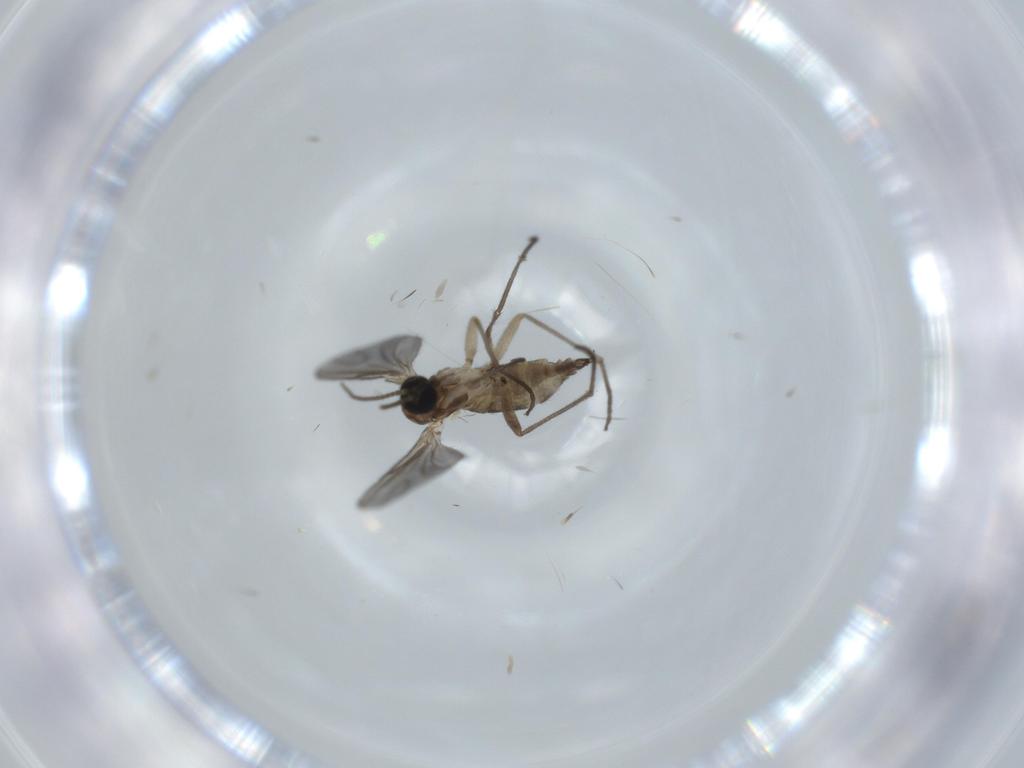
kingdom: Animalia
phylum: Arthropoda
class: Insecta
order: Diptera
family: Sciaridae
